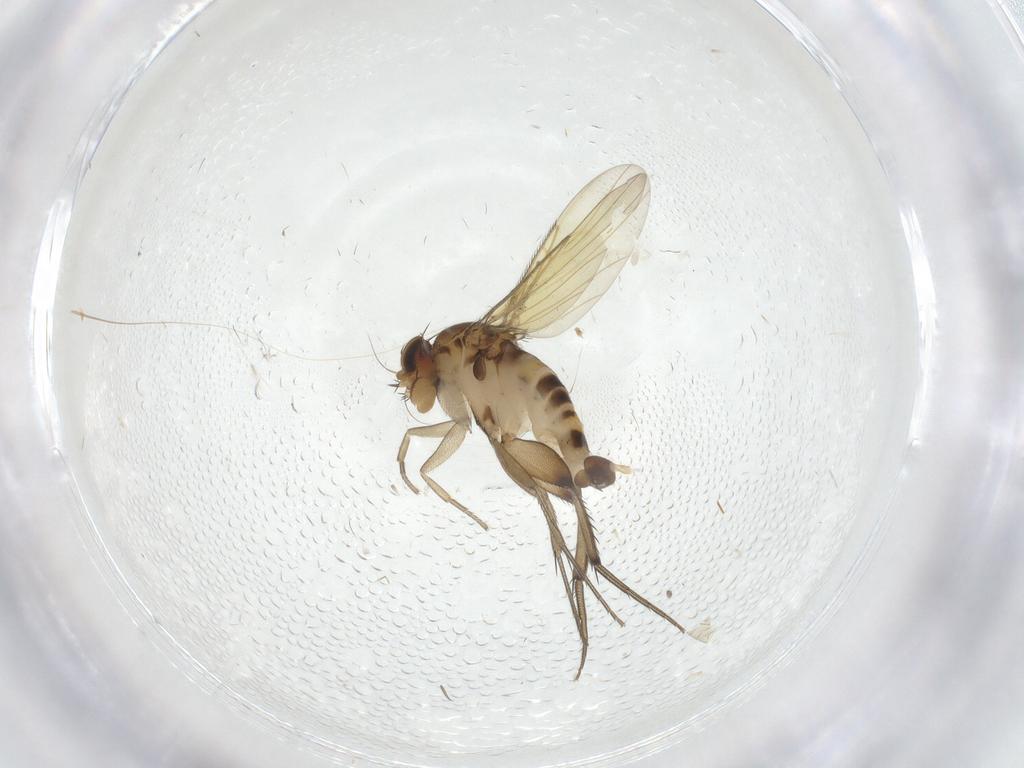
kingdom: Animalia
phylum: Arthropoda
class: Insecta
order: Diptera
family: Phoridae
